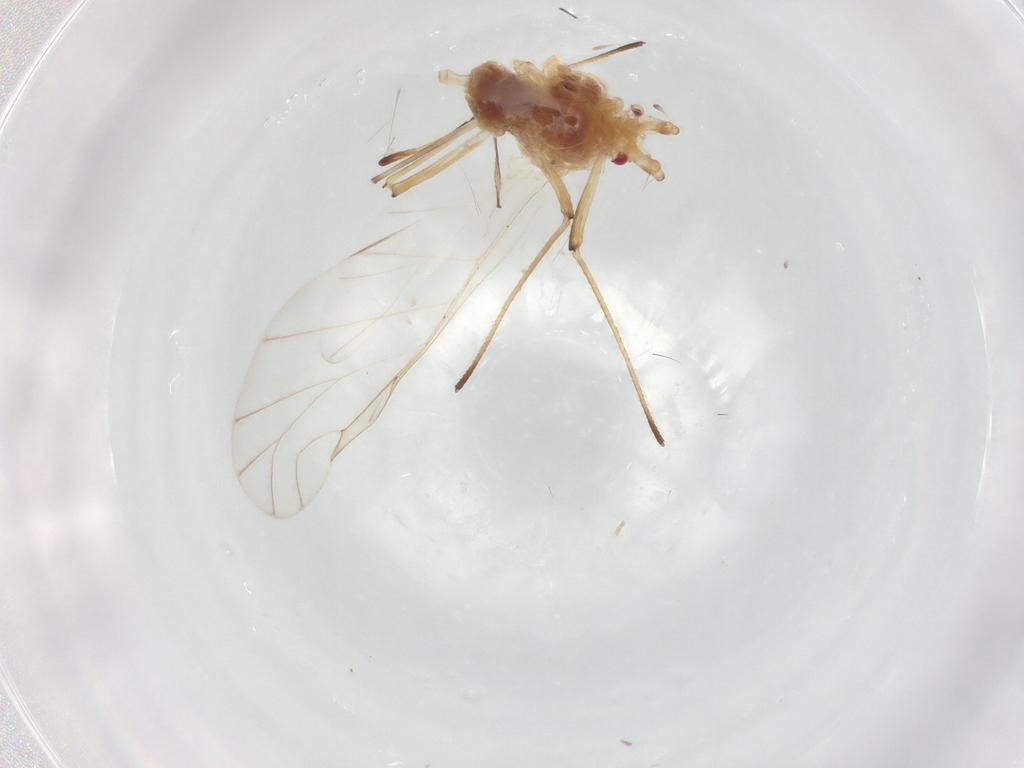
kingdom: Animalia
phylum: Arthropoda
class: Insecta
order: Hemiptera
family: Aphididae
